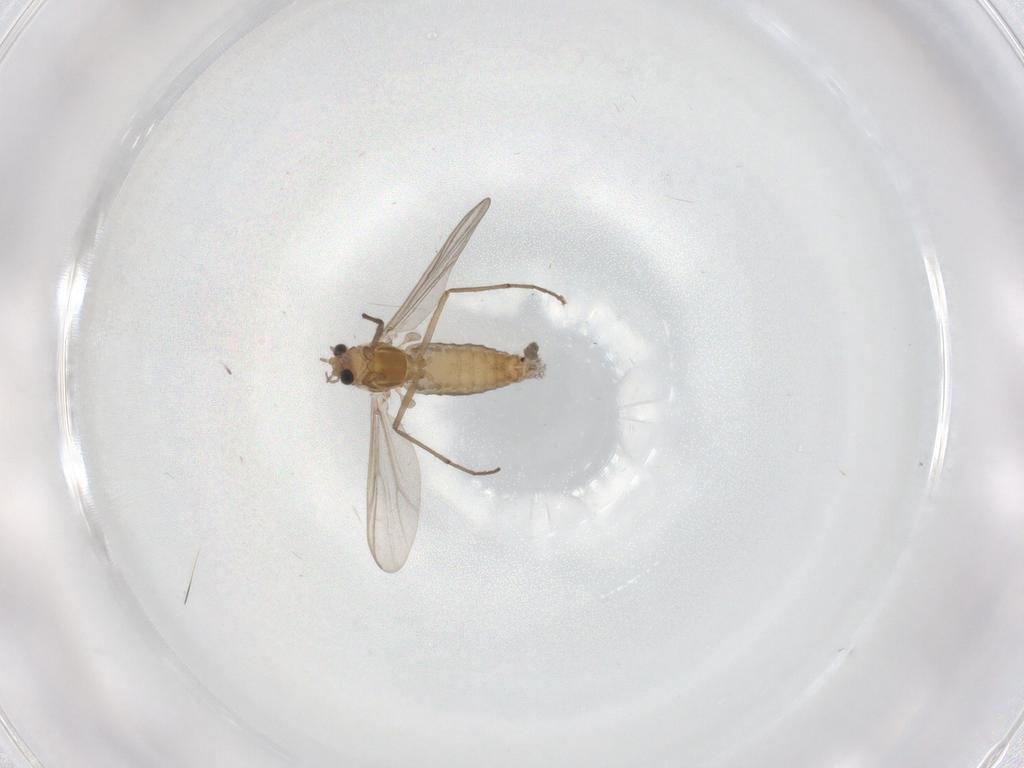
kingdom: Animalia
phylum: Arthropoda
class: Insecta
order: Diptera
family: Chironomidae
